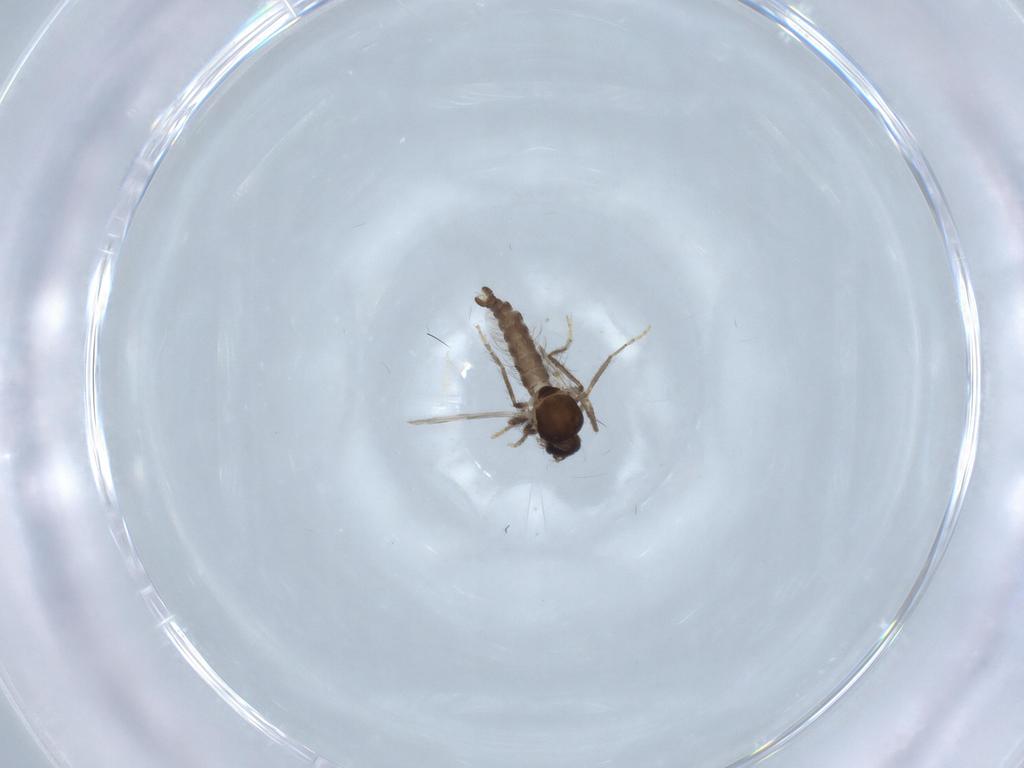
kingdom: Animalia
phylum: Arthropoda
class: Insecta
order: Diptera
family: Ceratopogonidae
